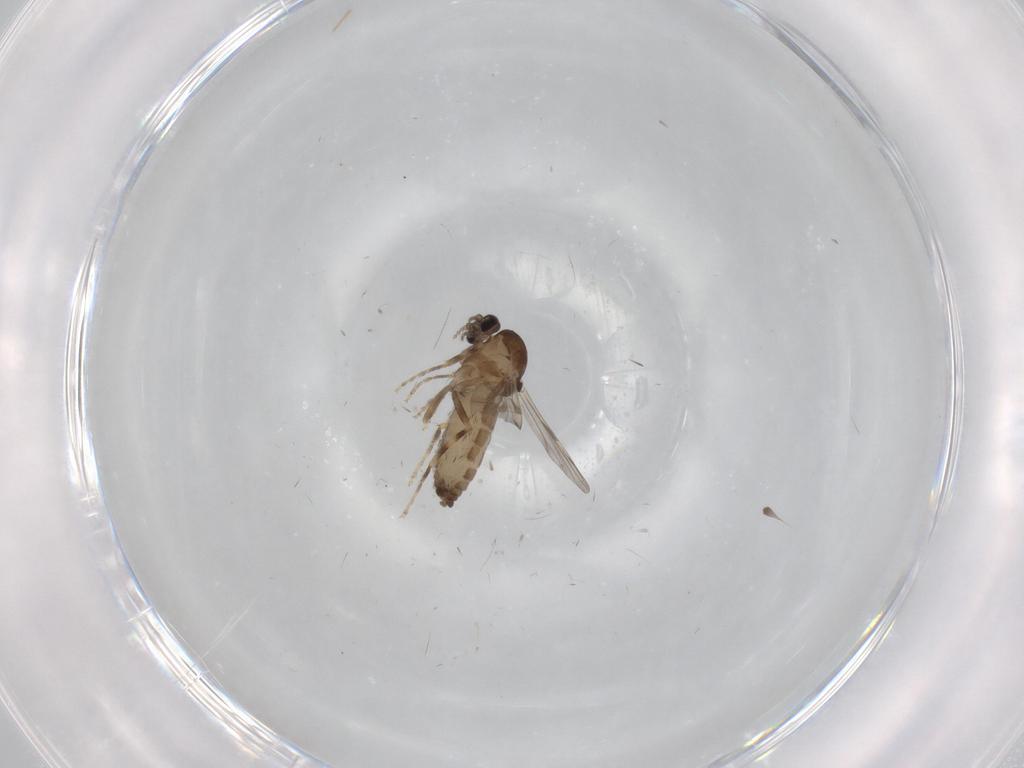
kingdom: Animalia
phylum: Arthropoda
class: Insecta
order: Diptera
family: Ceratopogonidae
